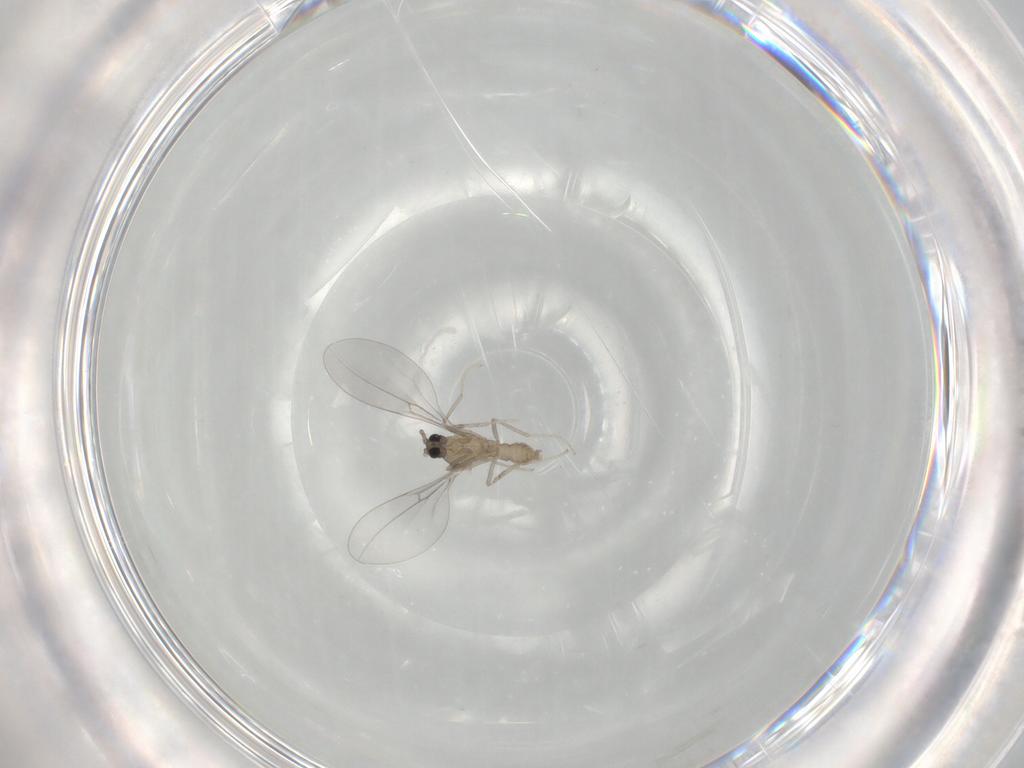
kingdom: Animalia
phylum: Arthropoda
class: Insecta
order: Diptera
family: Cecidomyiidae
